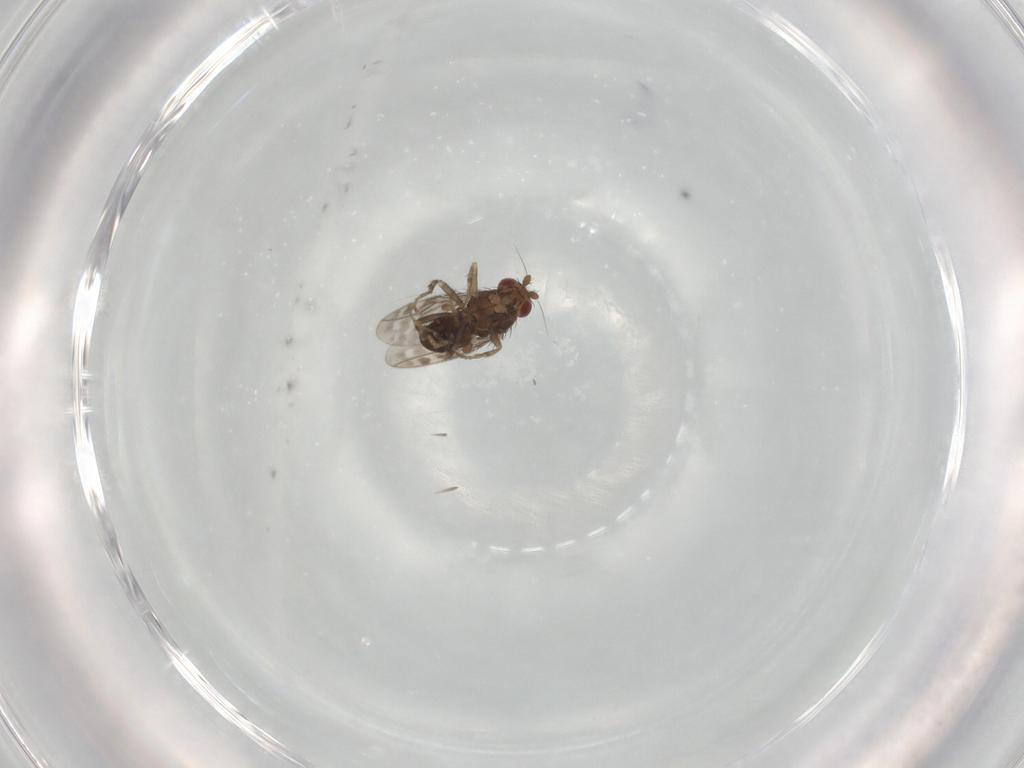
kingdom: Animalia
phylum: Arthropoda
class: Insecta
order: Diptera
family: Sphaeroceridae
